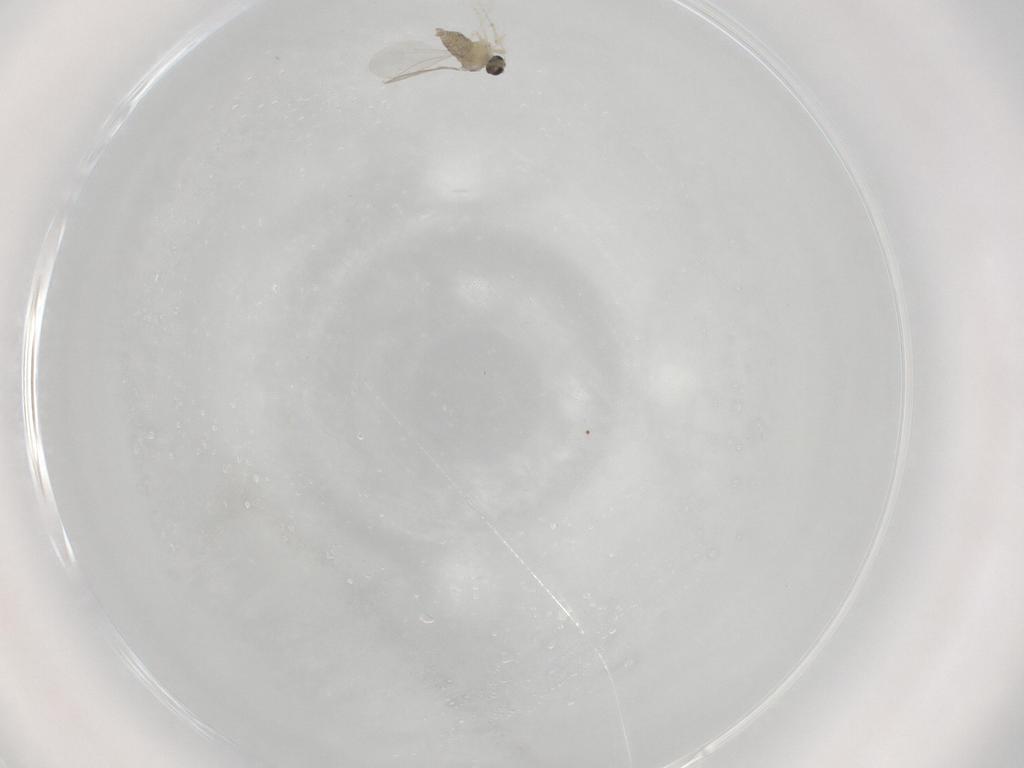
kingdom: Animalia
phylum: Arthropoda
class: Insecta
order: Diptera
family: Cecidomyiidae
